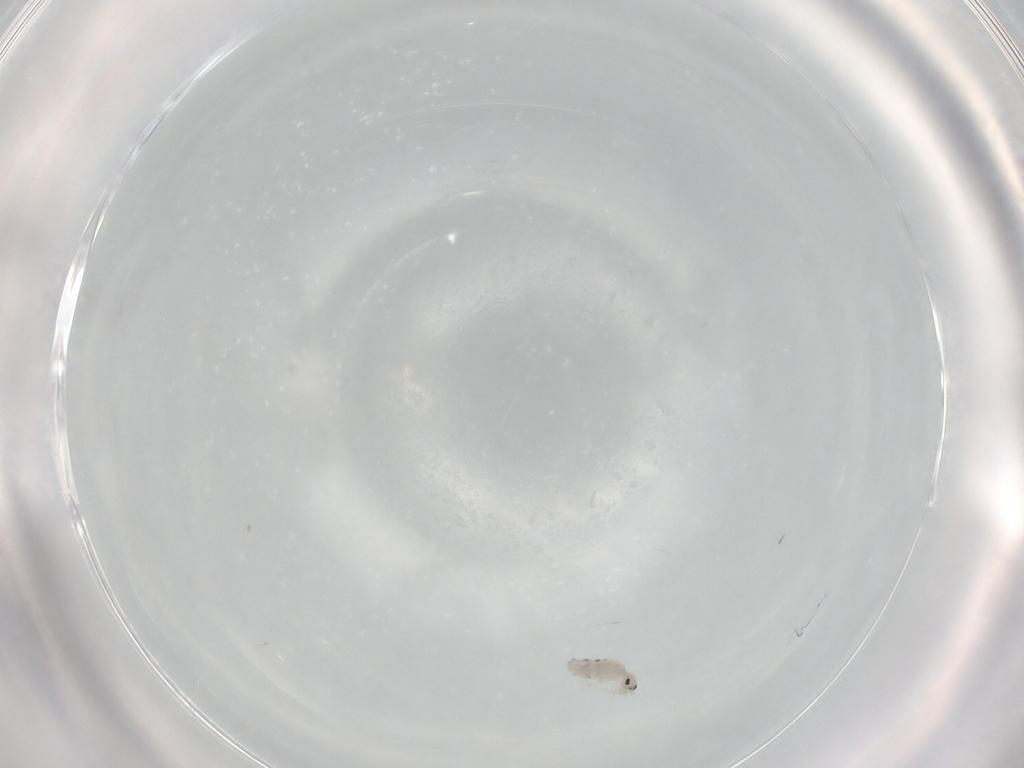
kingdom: Animalia
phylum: Arthropoda
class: Collembola
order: Entomobryomorpha
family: Entomobryidae
